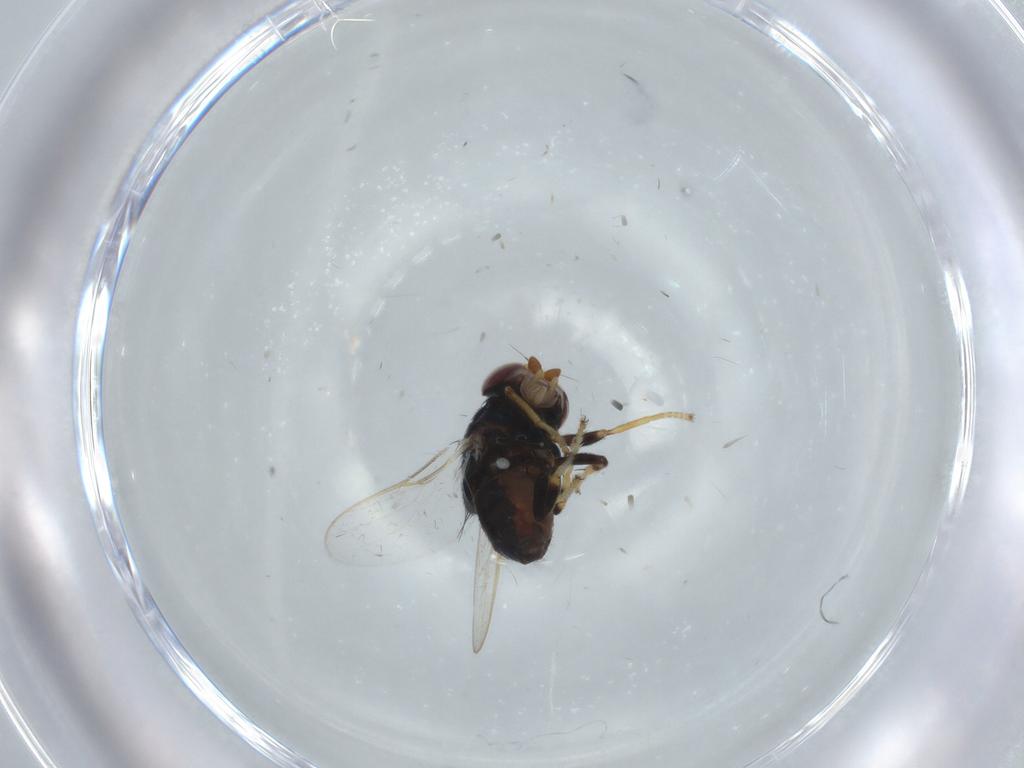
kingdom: Animalia
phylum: Arthropoda
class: Insecta
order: Diptera
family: Chloropidae
